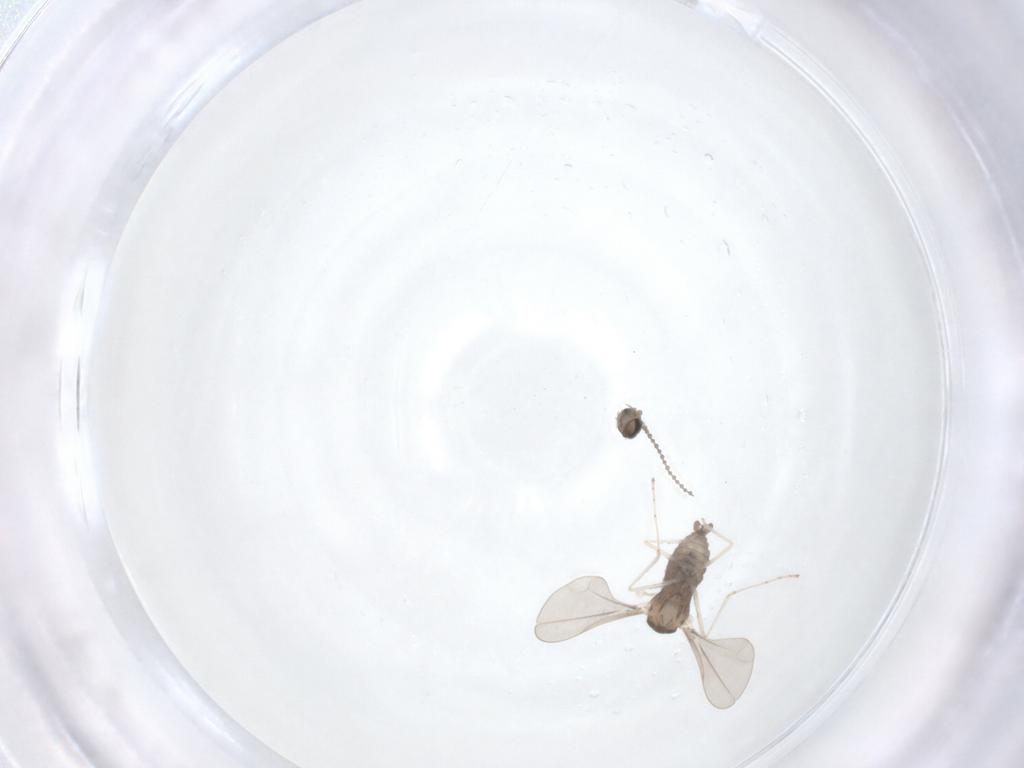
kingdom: Animalia
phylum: Arthropoda
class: Insecta
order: Diptera
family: Cecidomyiidae
